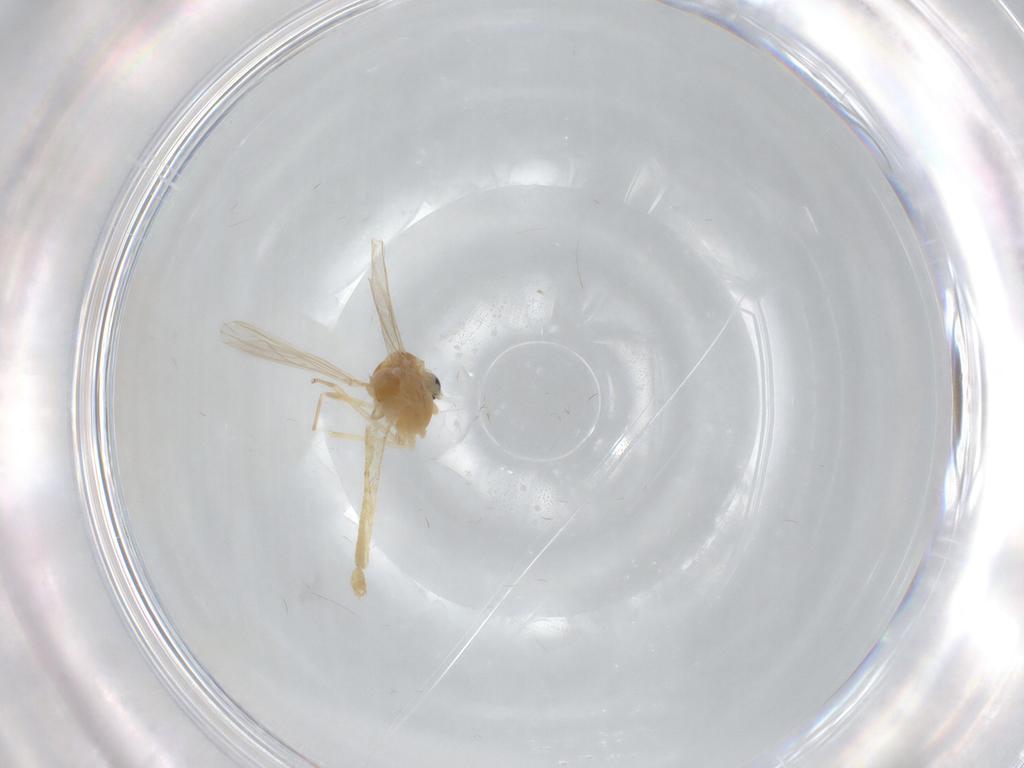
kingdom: Animalia
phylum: Arthropoda
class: Insecta
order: Diptera
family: Chironomidae
